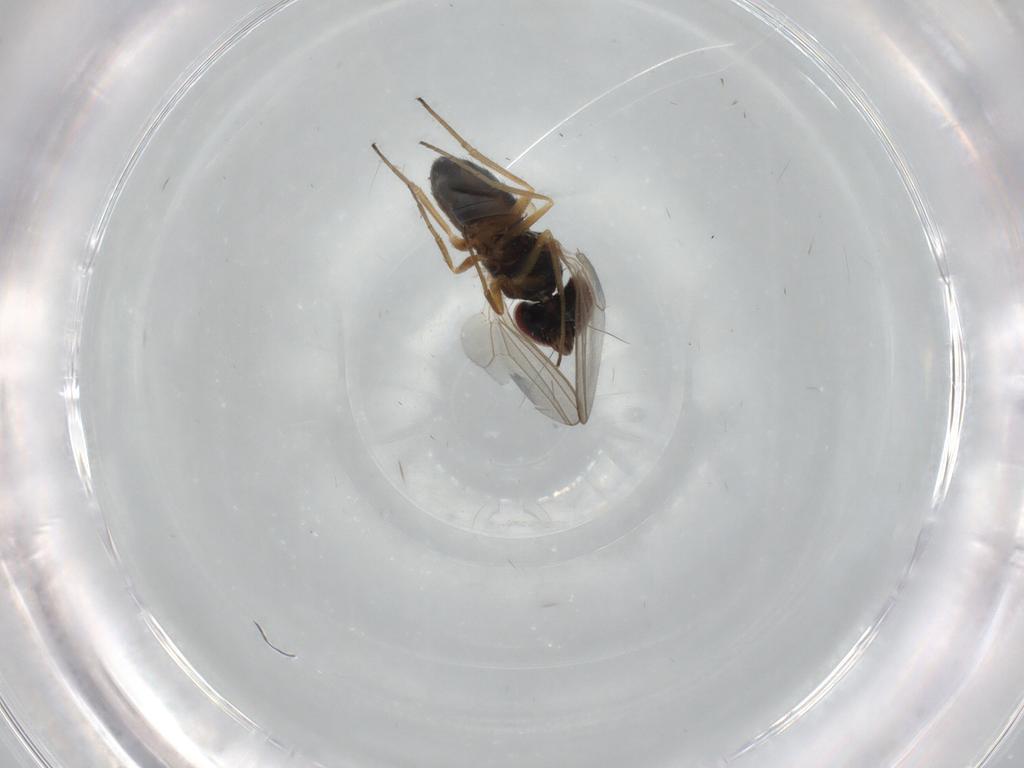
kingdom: Animalia
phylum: Arthropoda
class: Insecta
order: Diptera
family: Dolichopodidae
